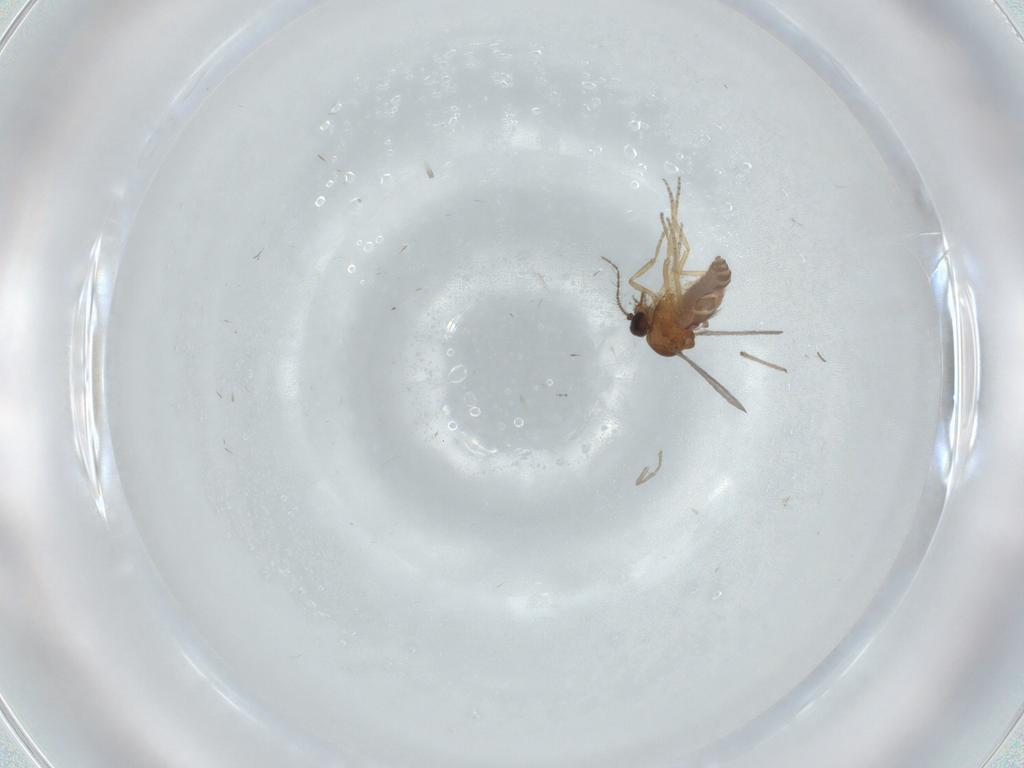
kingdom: Animalia
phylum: Arthropoda
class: Insecta
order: Diptera
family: Ceratopogonidae
